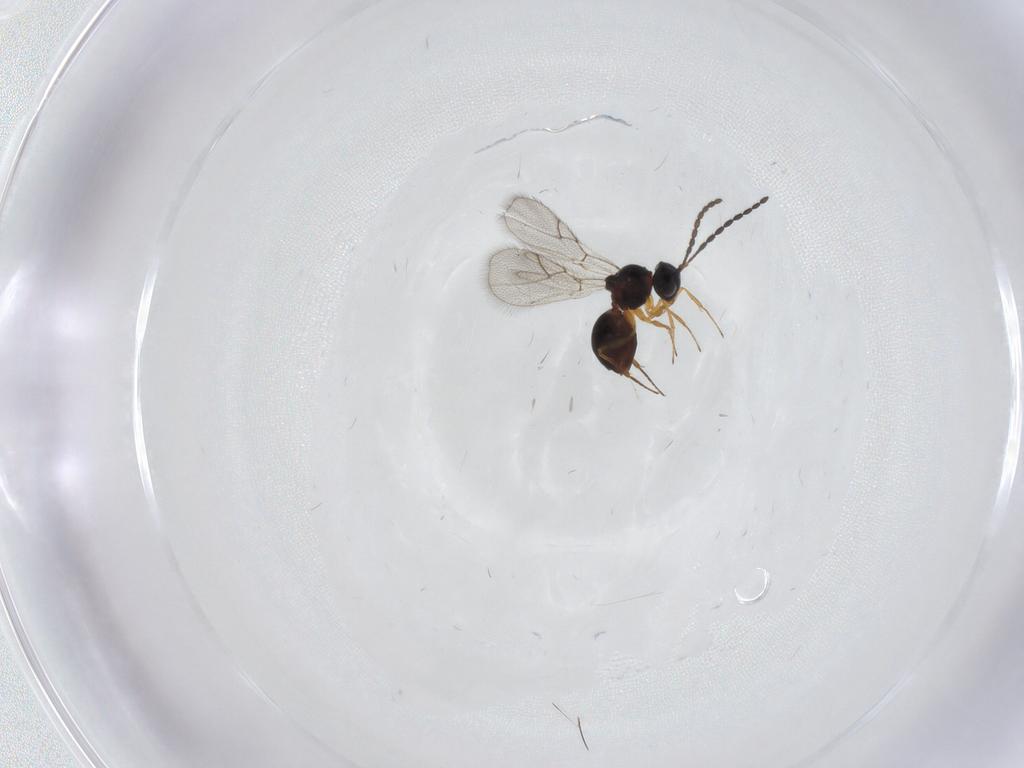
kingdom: Animalia
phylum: Arthropoda
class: Insecta
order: Hymenoptera
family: Figitidae
